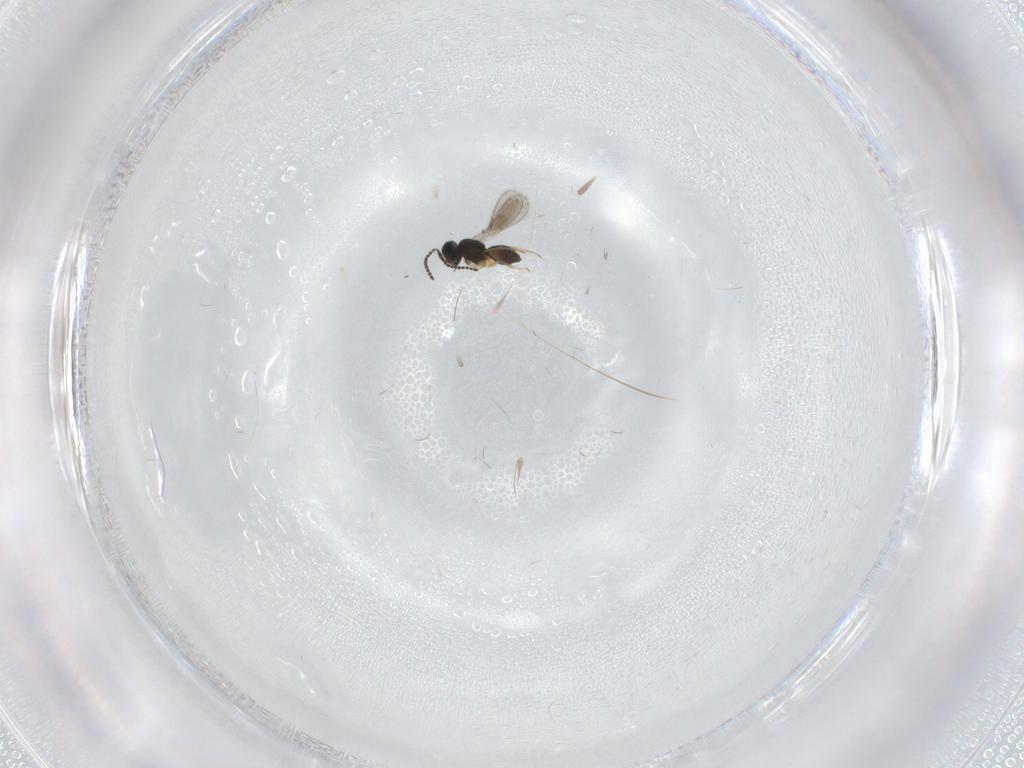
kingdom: Animalia
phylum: Arthropoda
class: Insecta
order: Hymenoptera
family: Scelionidae
